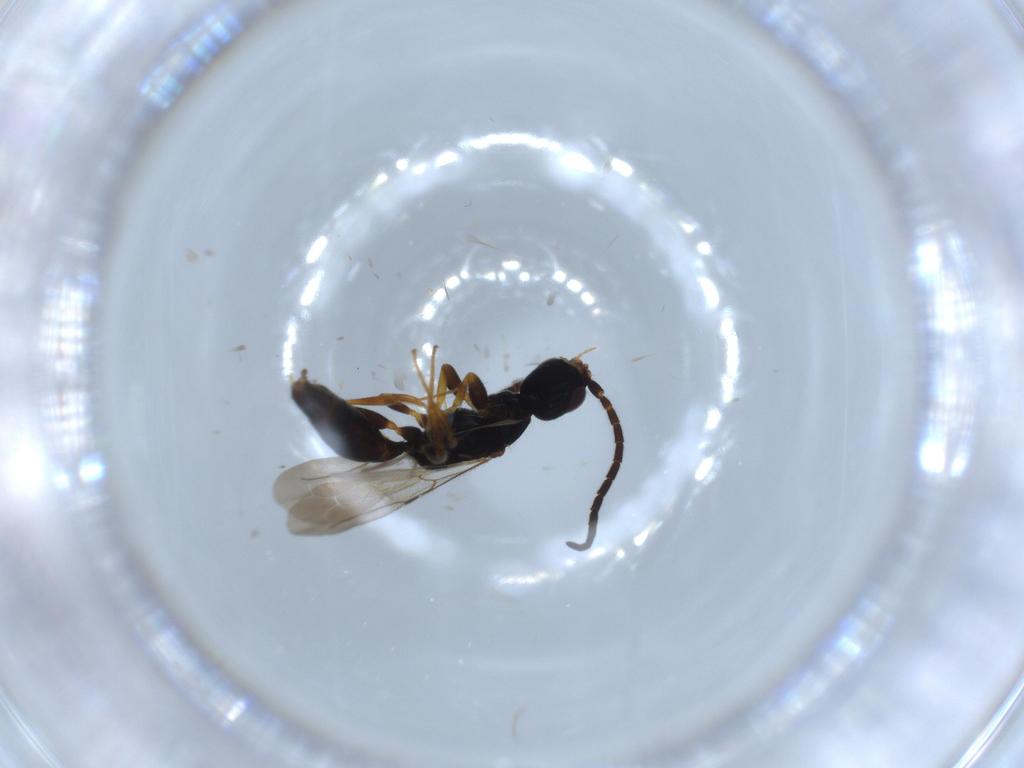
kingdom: Animalia
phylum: Arthropoda
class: Insecta
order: Hymenoptera
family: Bethylidae
